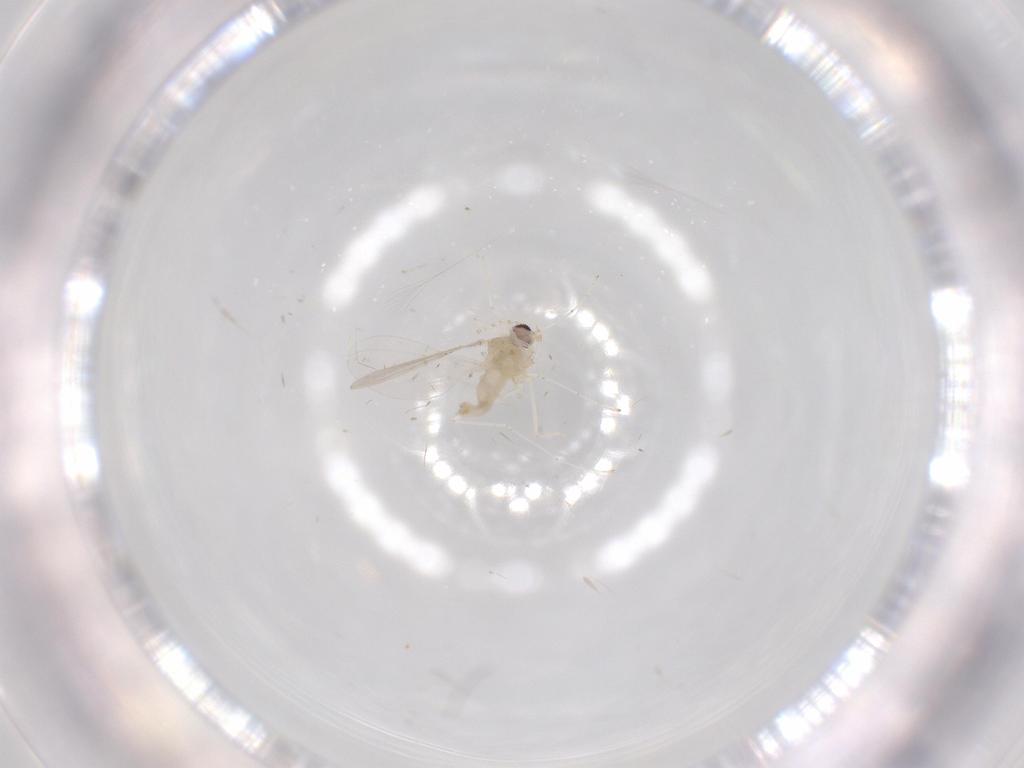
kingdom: Animalia
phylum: Arthropoda
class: Insecta
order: Diptera
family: Cecidomyiidae
